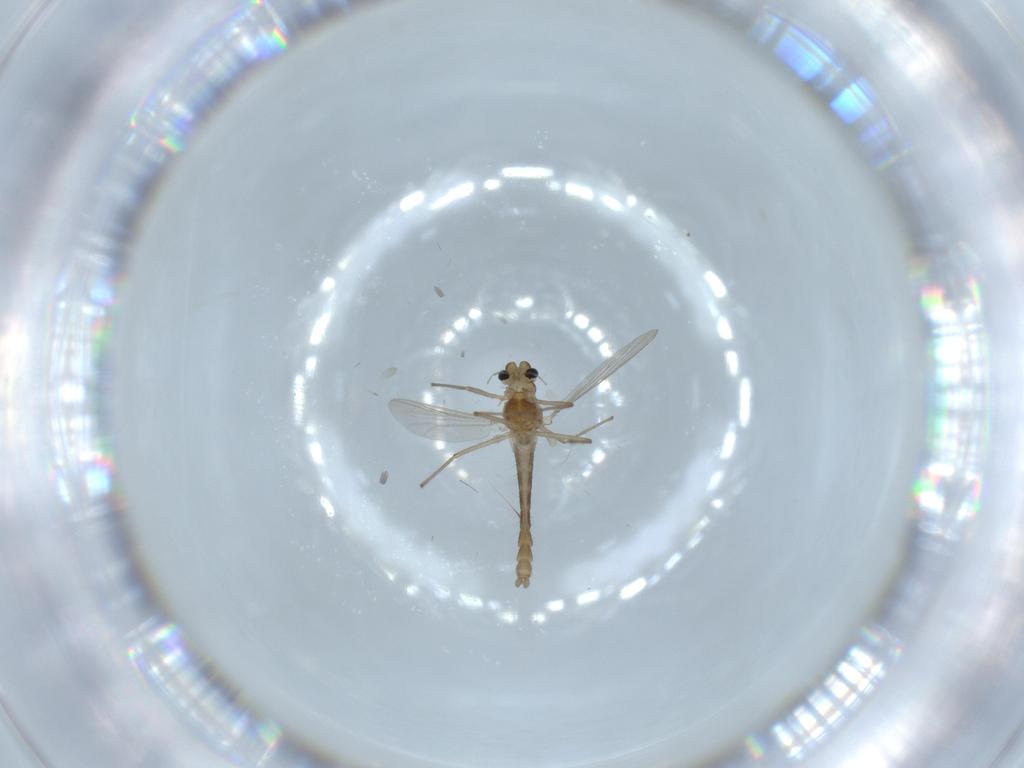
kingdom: Animalia
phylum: Arthropoda
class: Insecta
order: Diptera
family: Chironomidae
